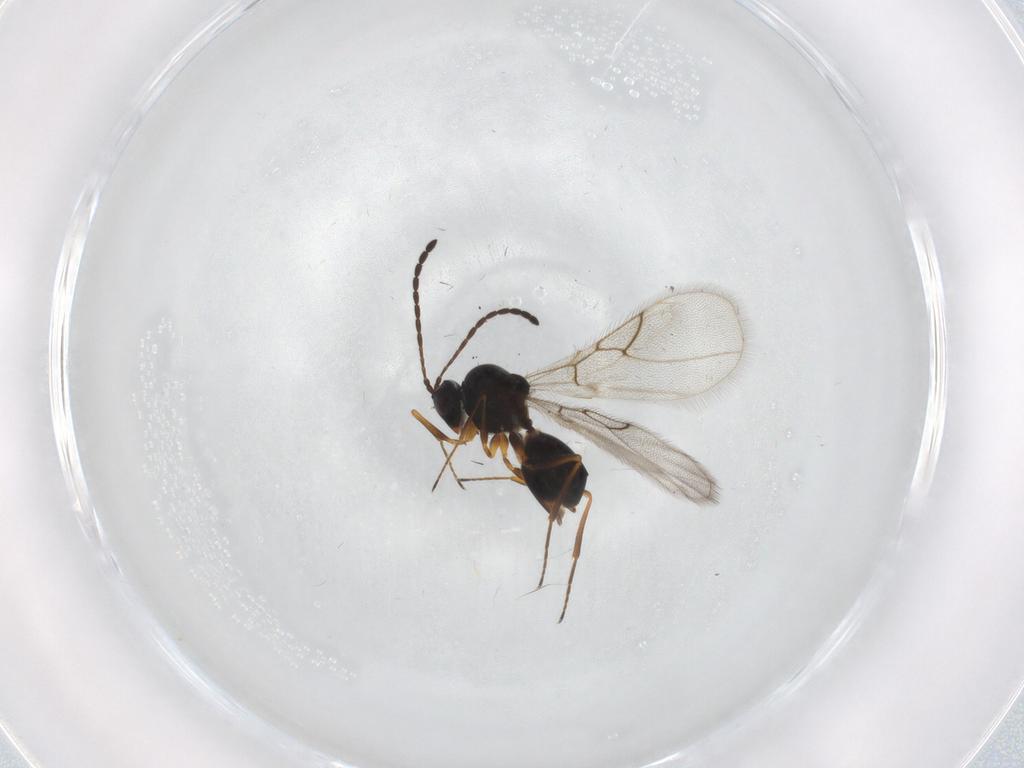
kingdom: Animalia
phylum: Arthropoda
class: Insecta
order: Hymenoptera
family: Figitidae
